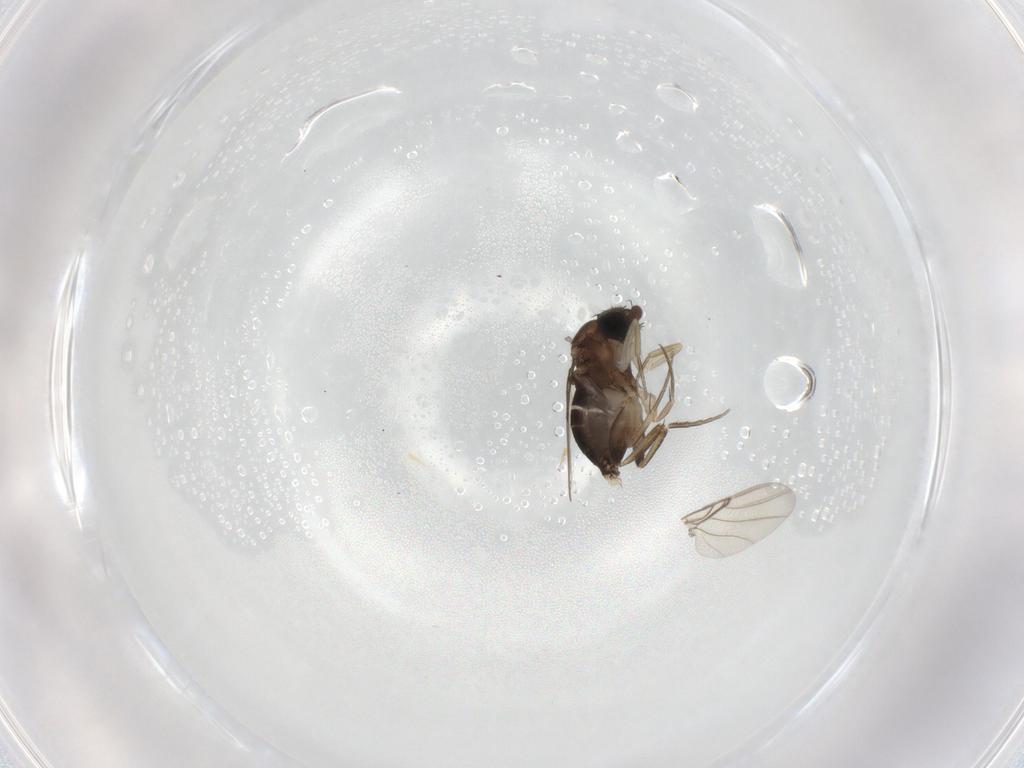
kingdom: Animalia
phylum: Arthropoda
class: Insecta
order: Diptera
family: Phoridae
